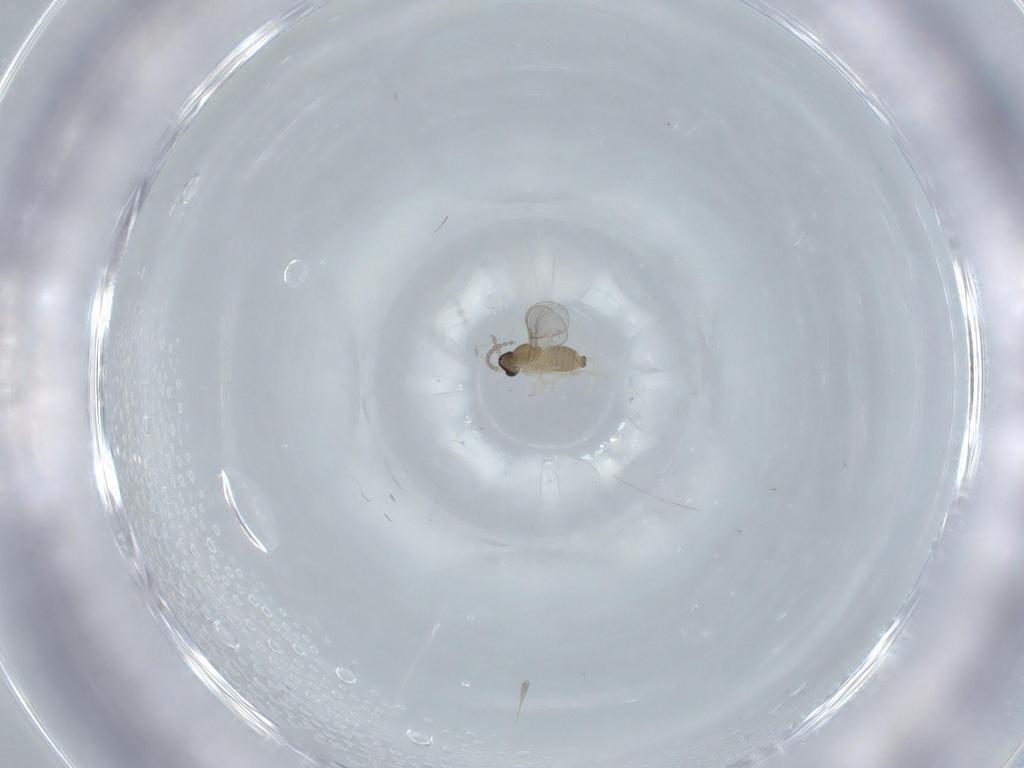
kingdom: Animalia
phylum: Arthropoda
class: Insecta
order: Diptera
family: Cecidomyiidae
